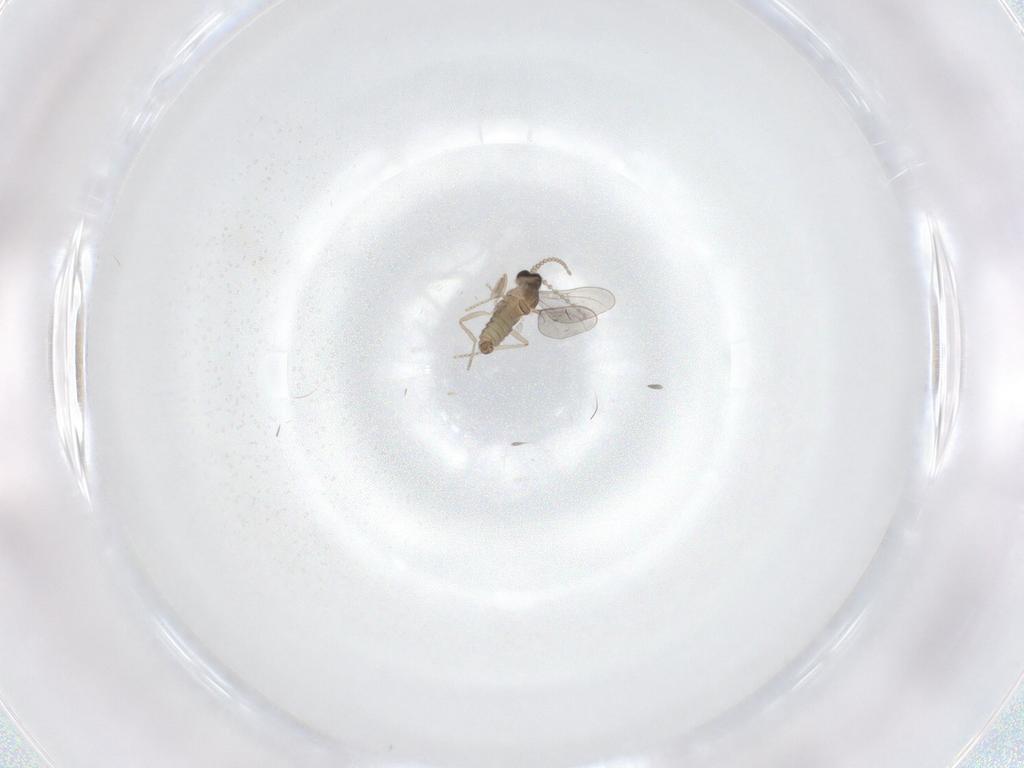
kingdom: Animalia
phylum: Arthropoda
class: Insecta
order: Diptera
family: Cecidomyiidae
